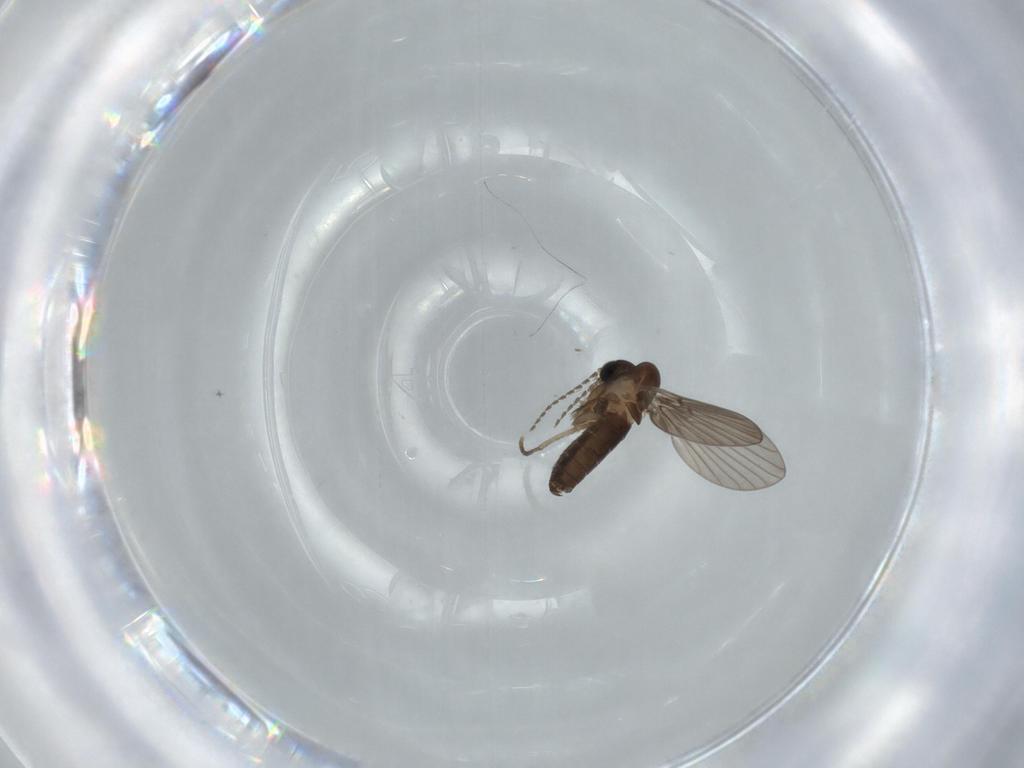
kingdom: Animalia
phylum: Arthropoda
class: Insecta
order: Diptera
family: Psychodidae
